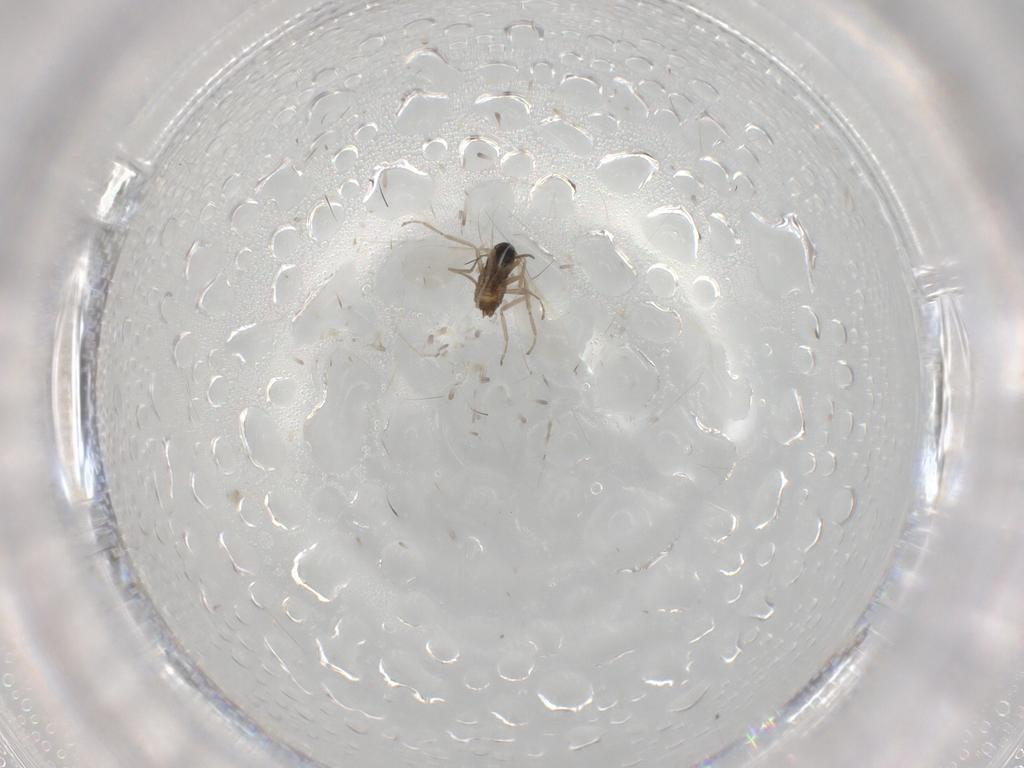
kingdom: Animalia
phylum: Arthropoda
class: Insecta
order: Diptera
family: Cecidomyiidae
